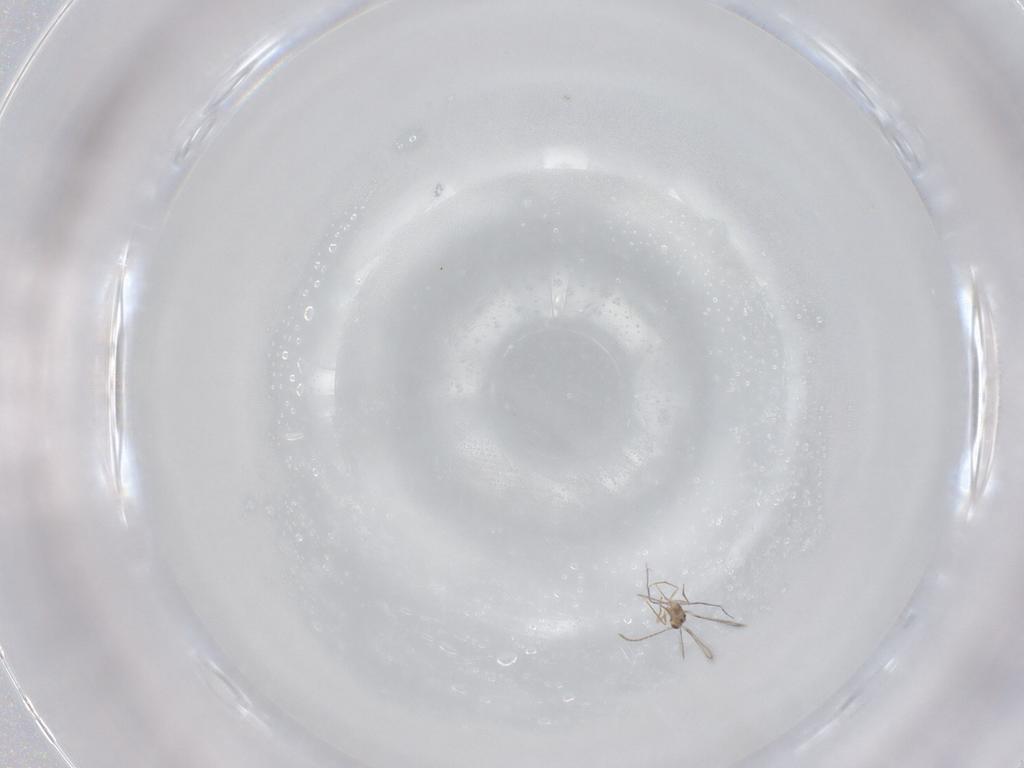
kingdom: Animalia
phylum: Arthropoda
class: Insecta
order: Hymenoptera
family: Mymaridae
